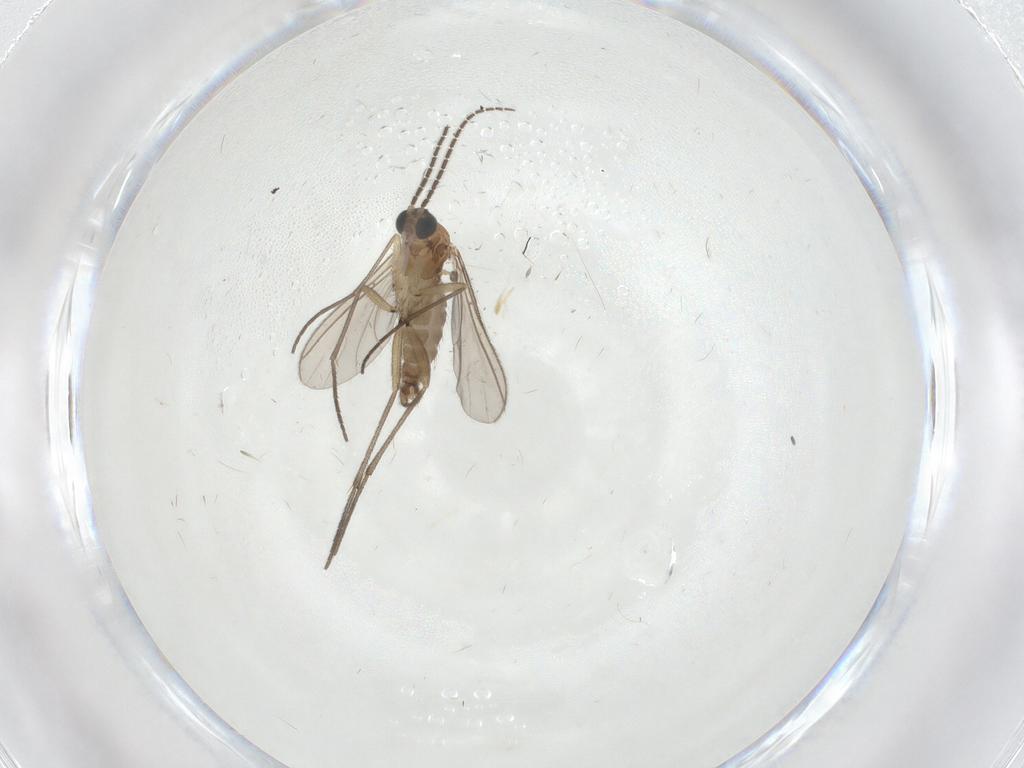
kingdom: Animalia
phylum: Arthropoda
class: Insecta
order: Diptera
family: Sciaridae
